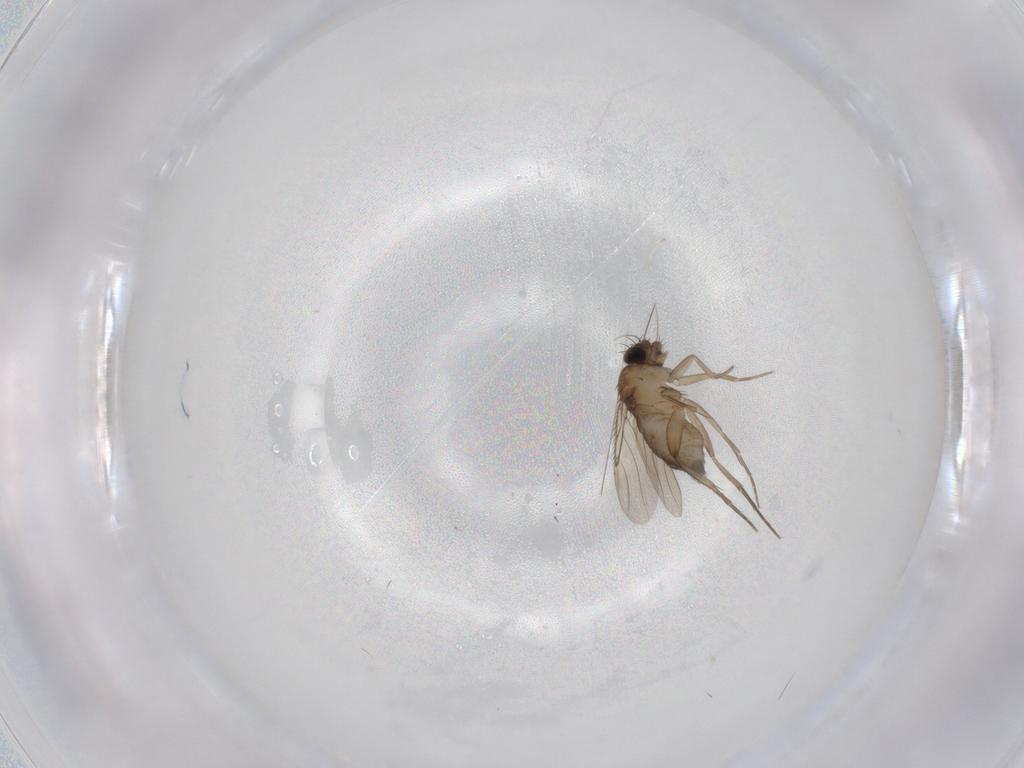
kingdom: Animalia
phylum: Arthropoda
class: Insecta
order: Diptera
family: Phoridae
